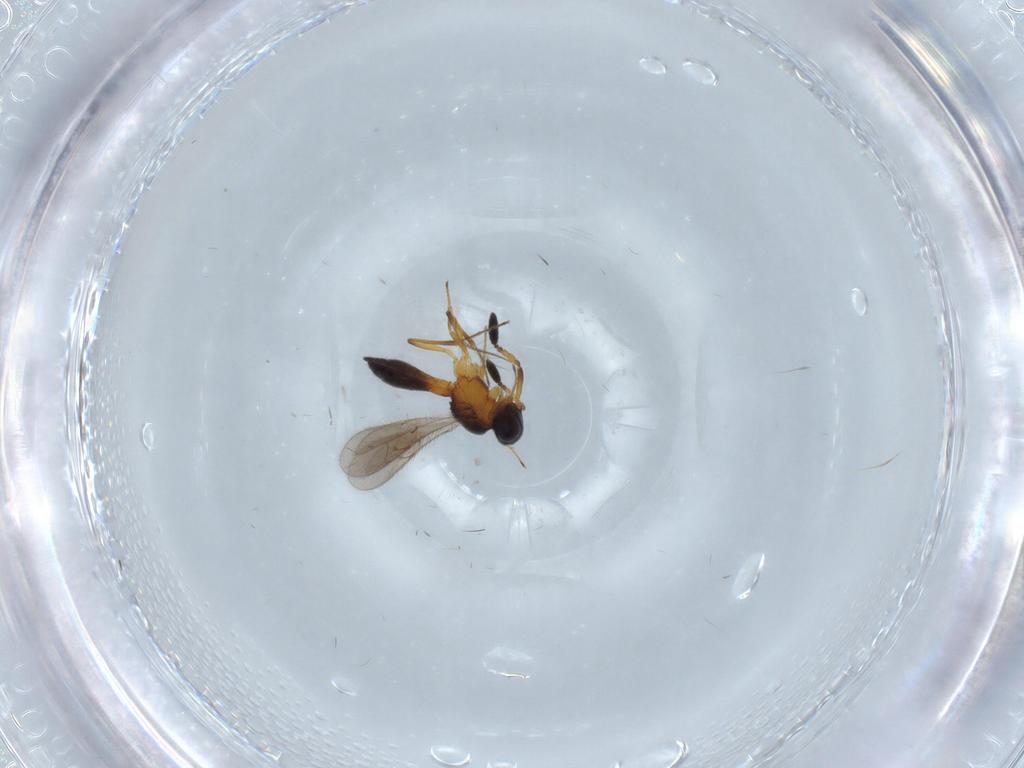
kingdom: Animalia
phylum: Arthropoda
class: Insecta
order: Hymenoptera
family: Scelionidae
